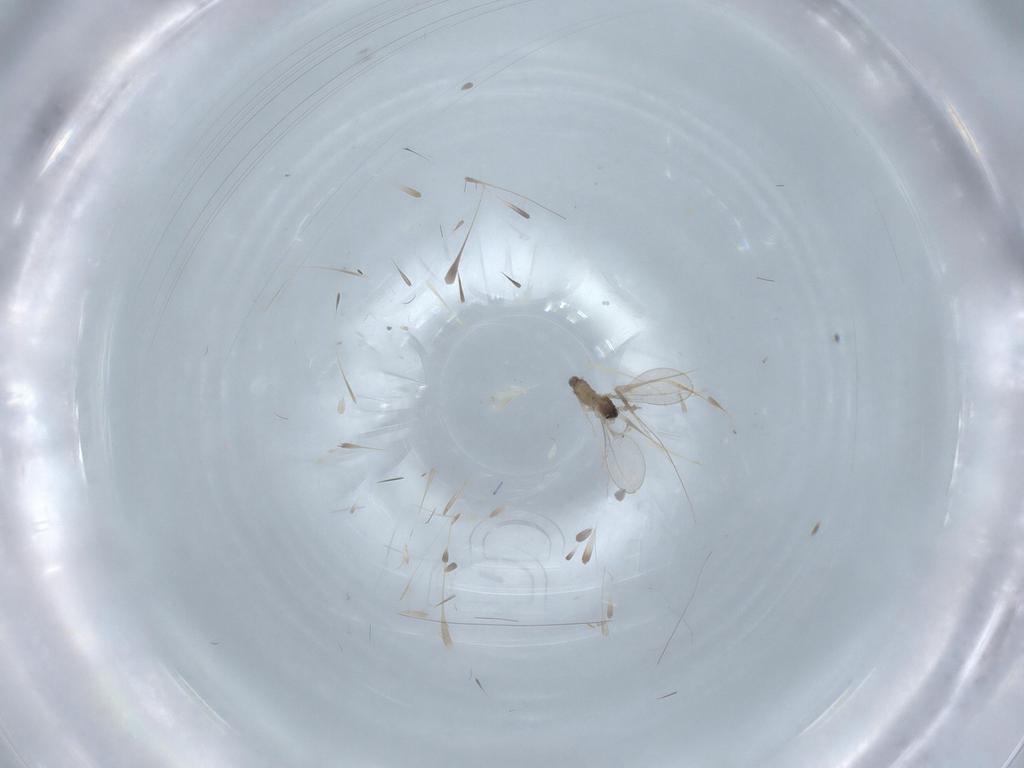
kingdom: Animalia
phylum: Arthropoda
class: Insecta
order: Diptera
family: Cecidomyiidae
